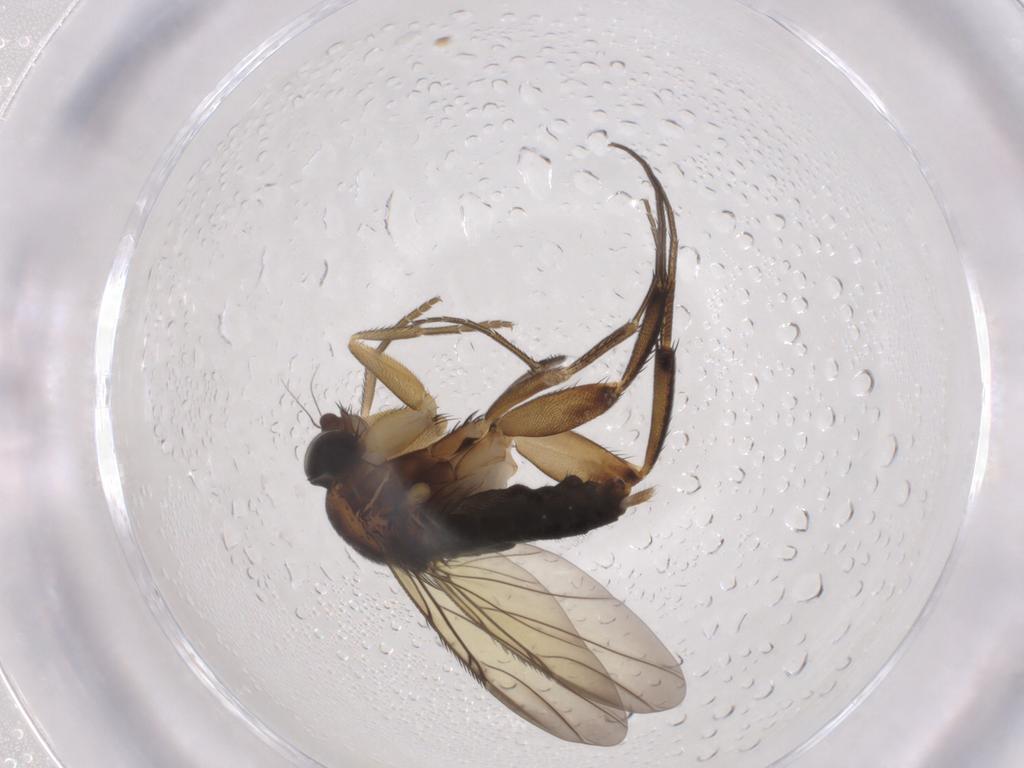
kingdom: Animalia
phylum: Arthropoda
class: Insecta
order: Diptera
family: Phoridae
